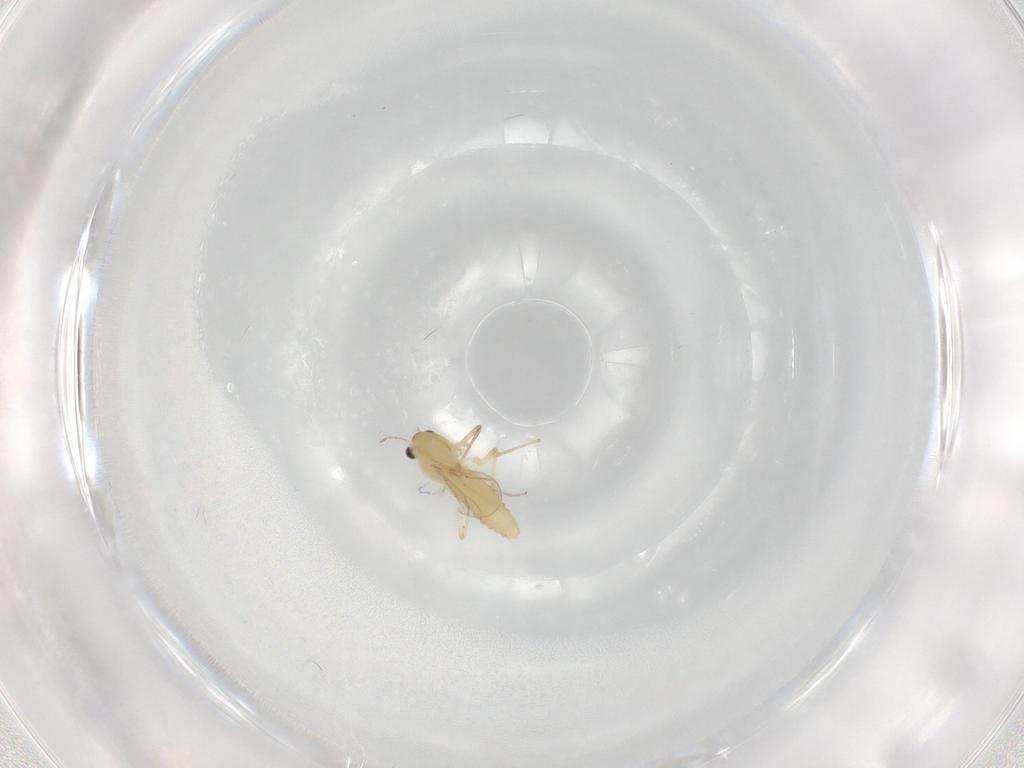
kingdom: Animalia
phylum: Arthropoda
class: Insecta
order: Diptera
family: Chironomidae
